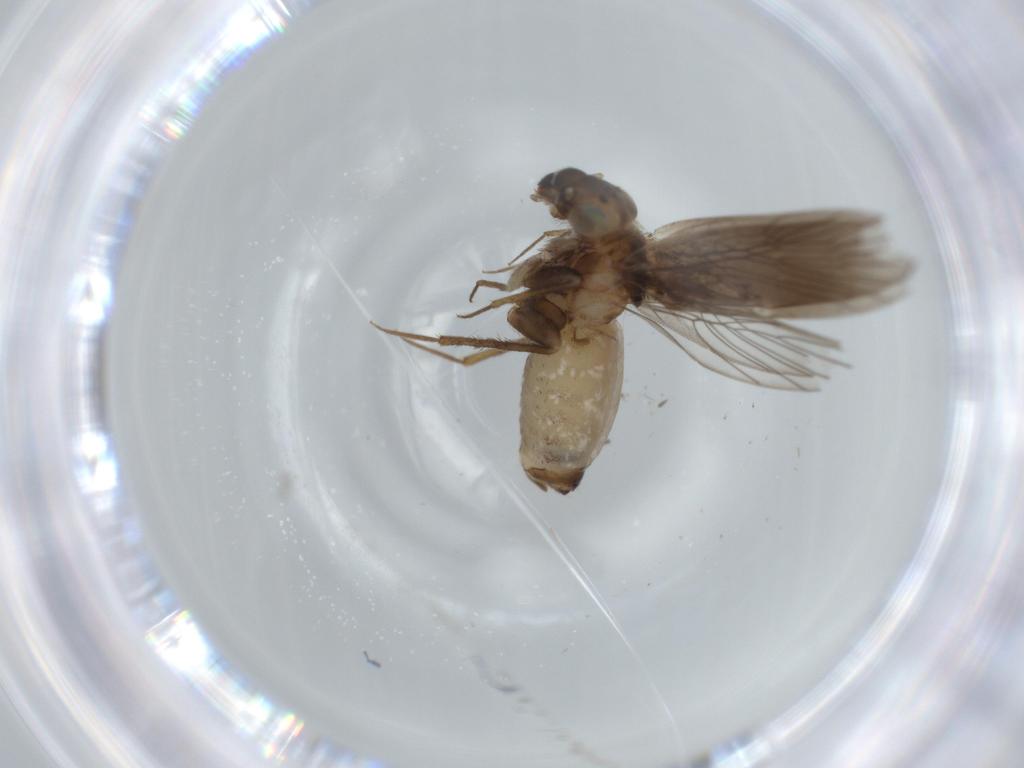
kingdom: Animalia
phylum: Arthropoda
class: Insecta
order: Psocodea
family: Lepidopsocidae
